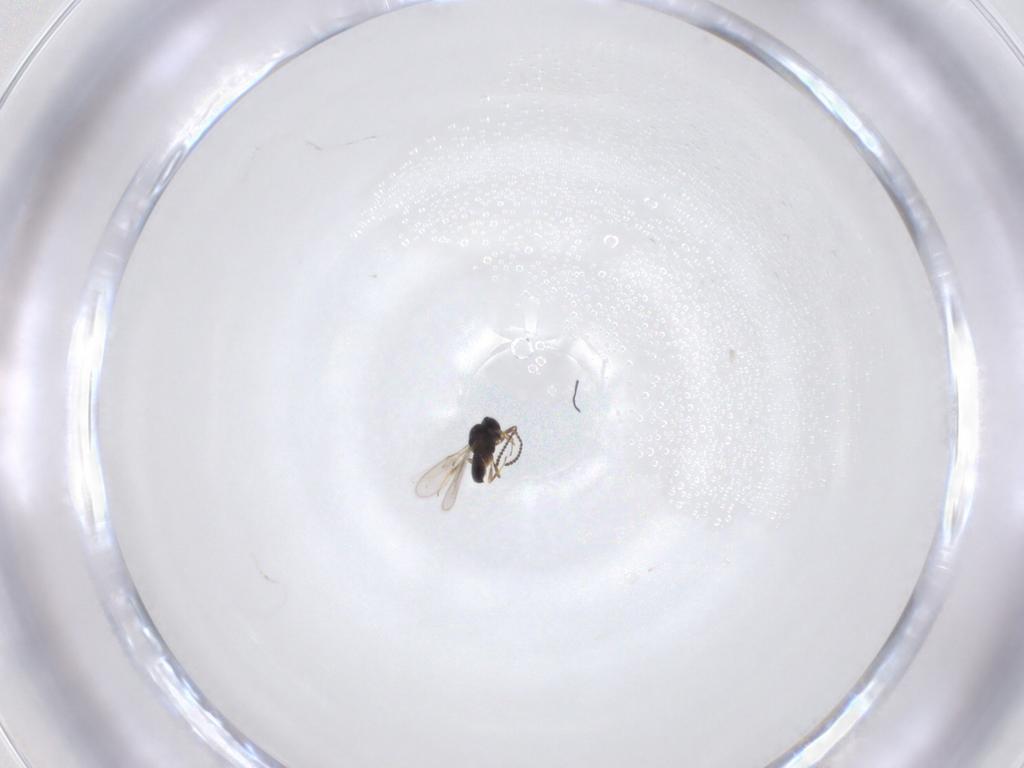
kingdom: Animalia
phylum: Arthropoda
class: Insecta
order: Hymenoptera
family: Scelionidae
